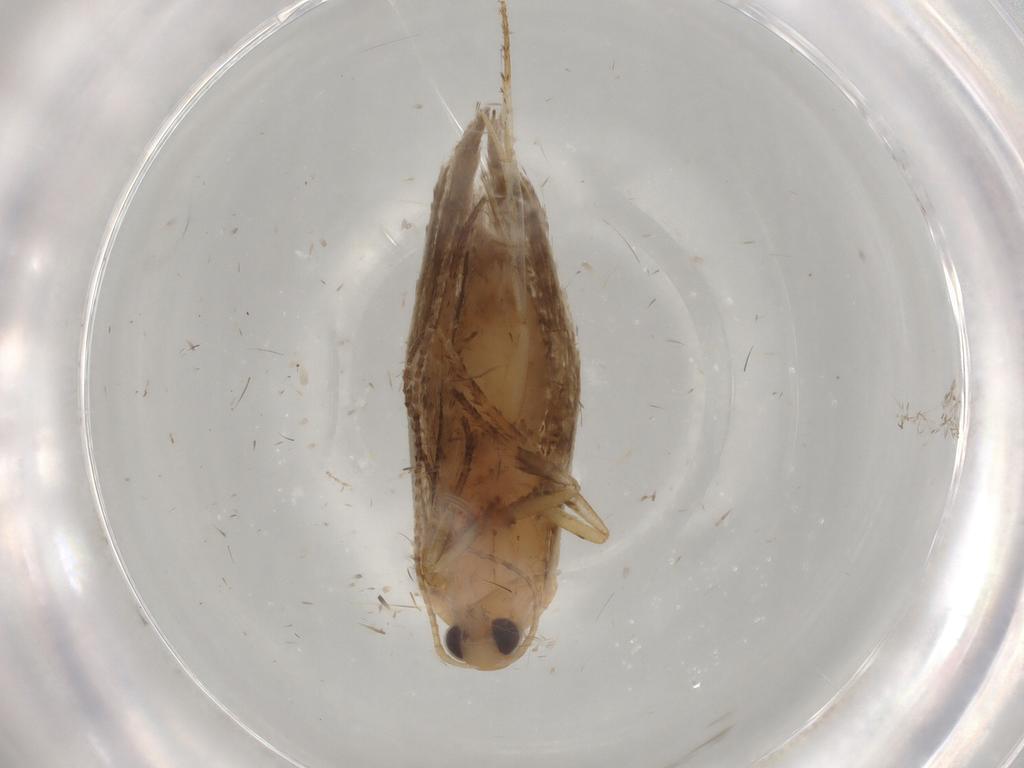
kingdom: Animalia
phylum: Arthropoda
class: Insecta
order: Lepidoptera
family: Ypsolophidae
